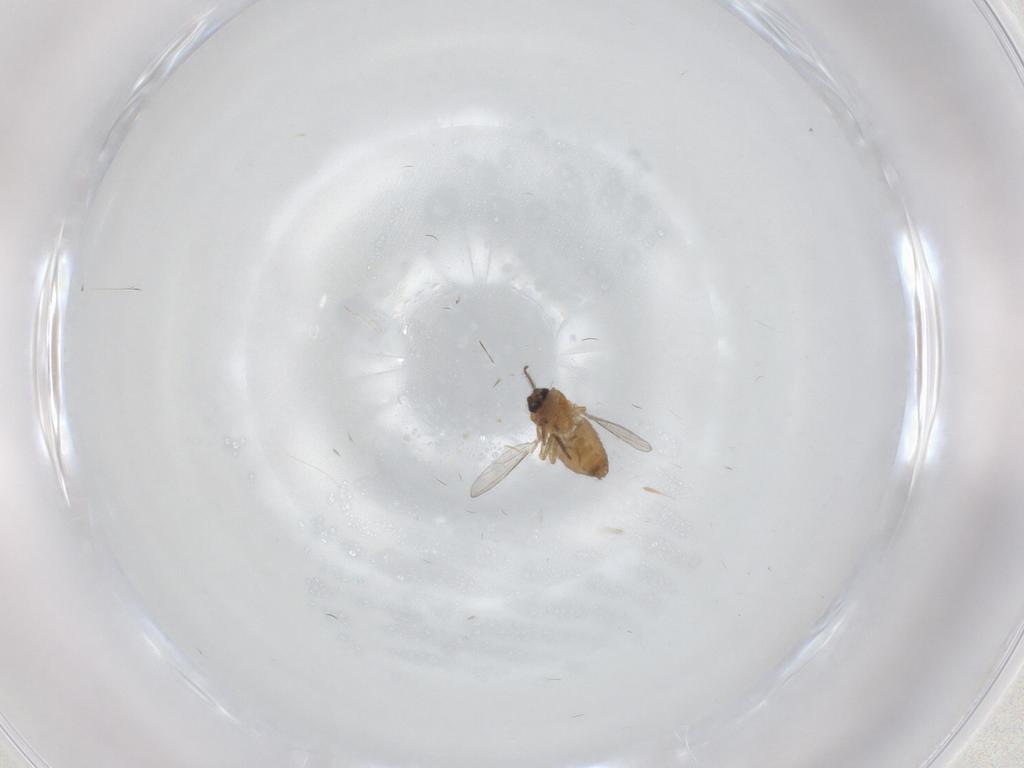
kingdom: Animalia
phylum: Arthropoda
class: Insecta
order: Diptera
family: Ceratopogonidae
